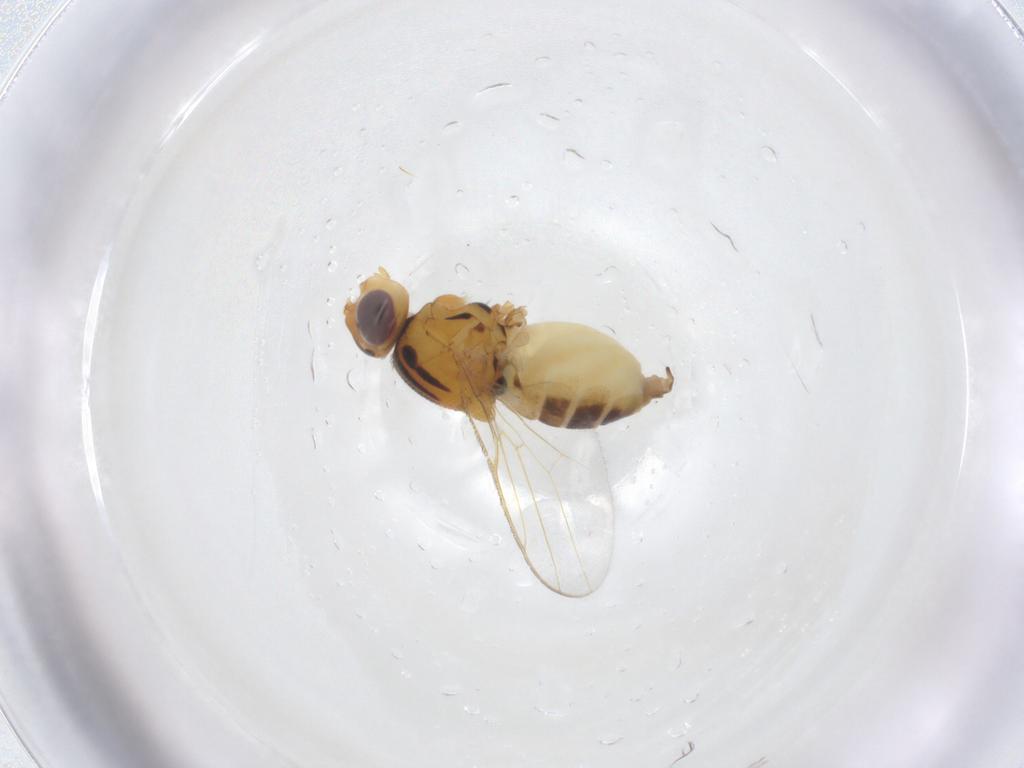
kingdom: Animalia
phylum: Arthropoda
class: Insecta
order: Diptera
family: Chloropidae
